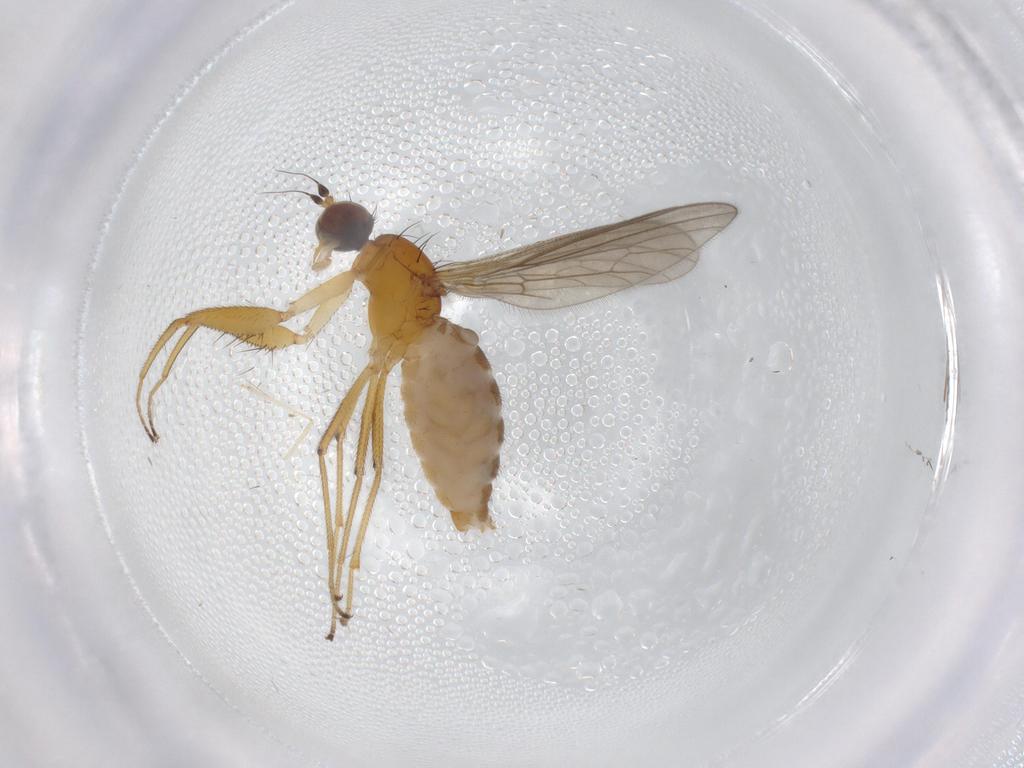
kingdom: Animalia
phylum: Arthropoda
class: Insecta
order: Diptera
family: Empididae
